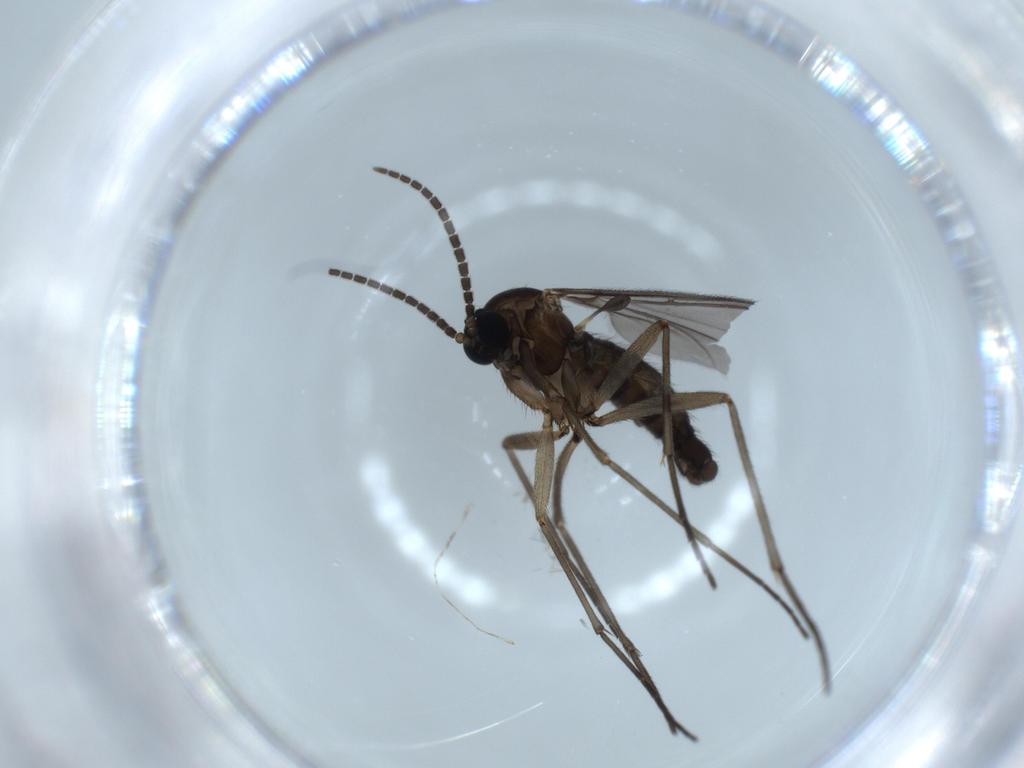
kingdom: Animalia
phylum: Arthropoda
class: Insecta
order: Diptera
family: Sciaridae
